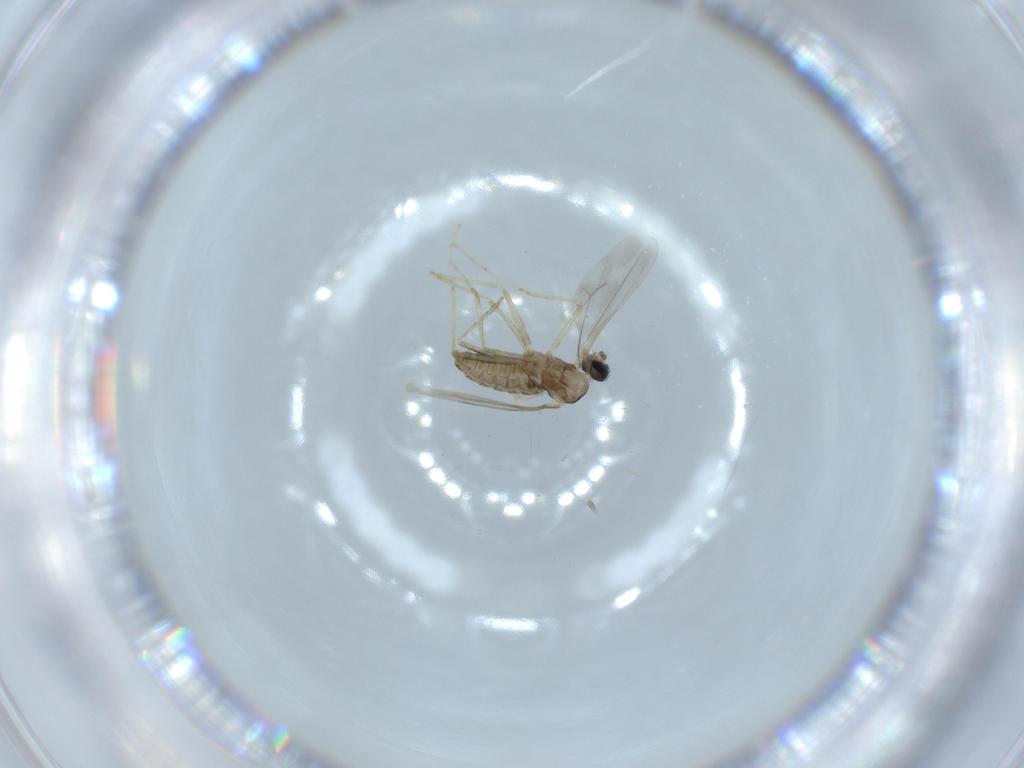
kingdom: Animalia
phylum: Arthropoda
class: Insecta
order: Diptera
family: Cecidomyiidae
